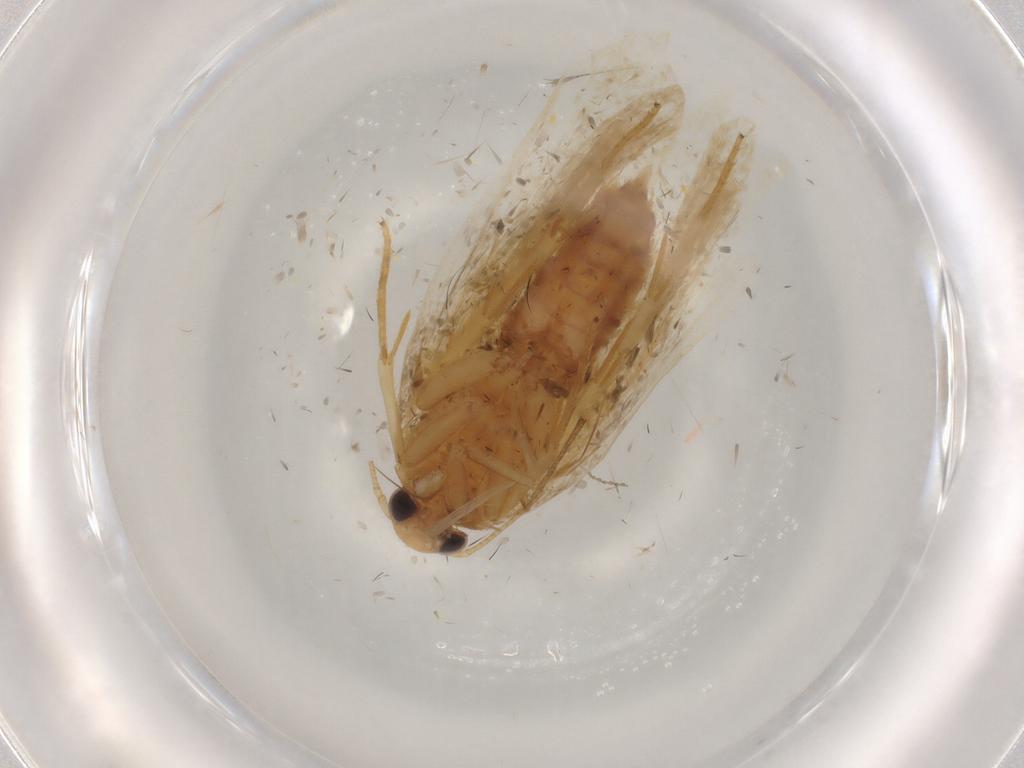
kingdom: Animalia
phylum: Arthropoda
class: Insecta
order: Lepidoptera
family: Depressariidae
